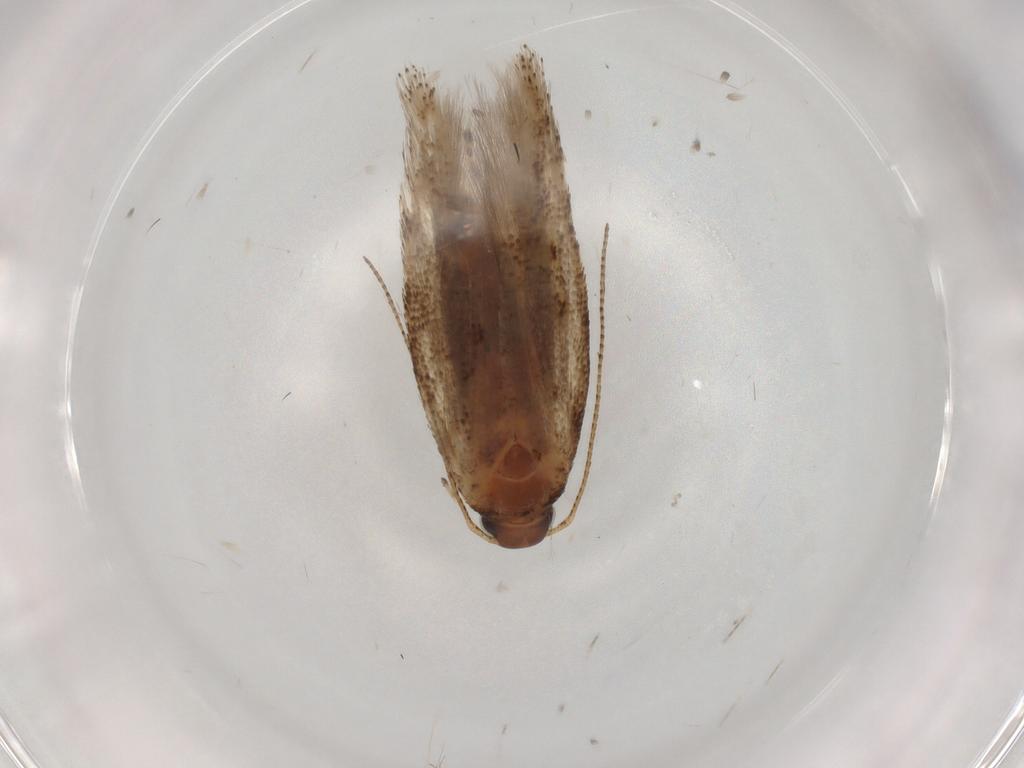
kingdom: Animalia
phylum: Arthropoda
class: Insecta
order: Lepidoptera
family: Gelechiidae
